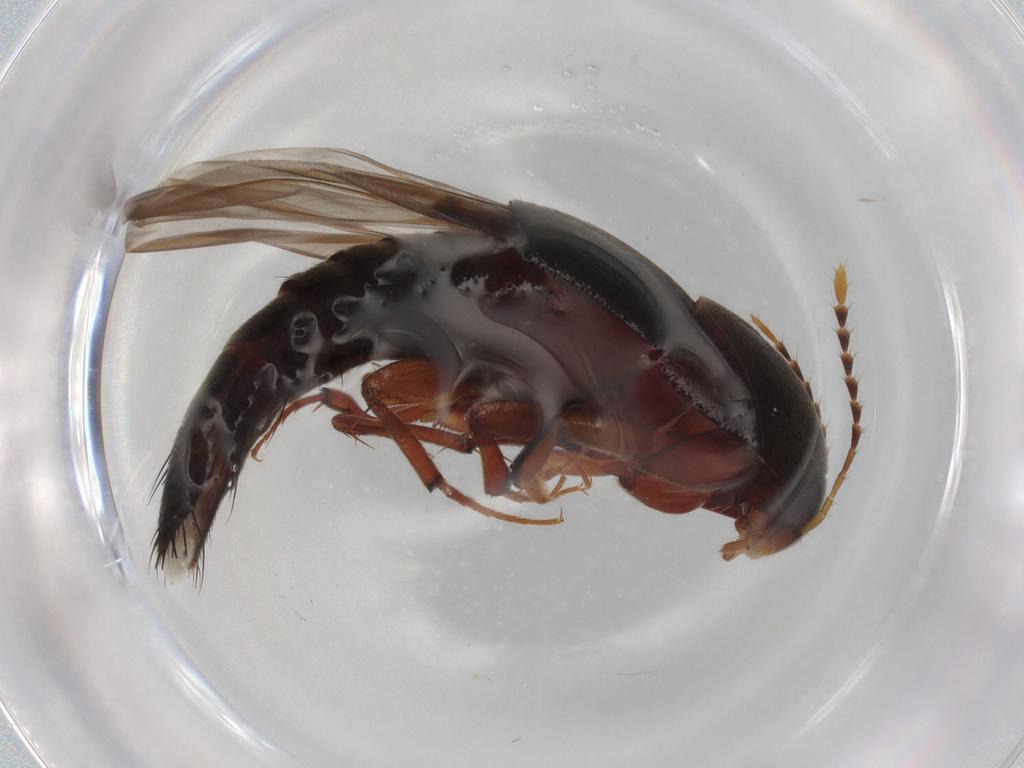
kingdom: Animalia
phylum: Arthropoda
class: Insecta
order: Coleoptera
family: Staphylinidae
